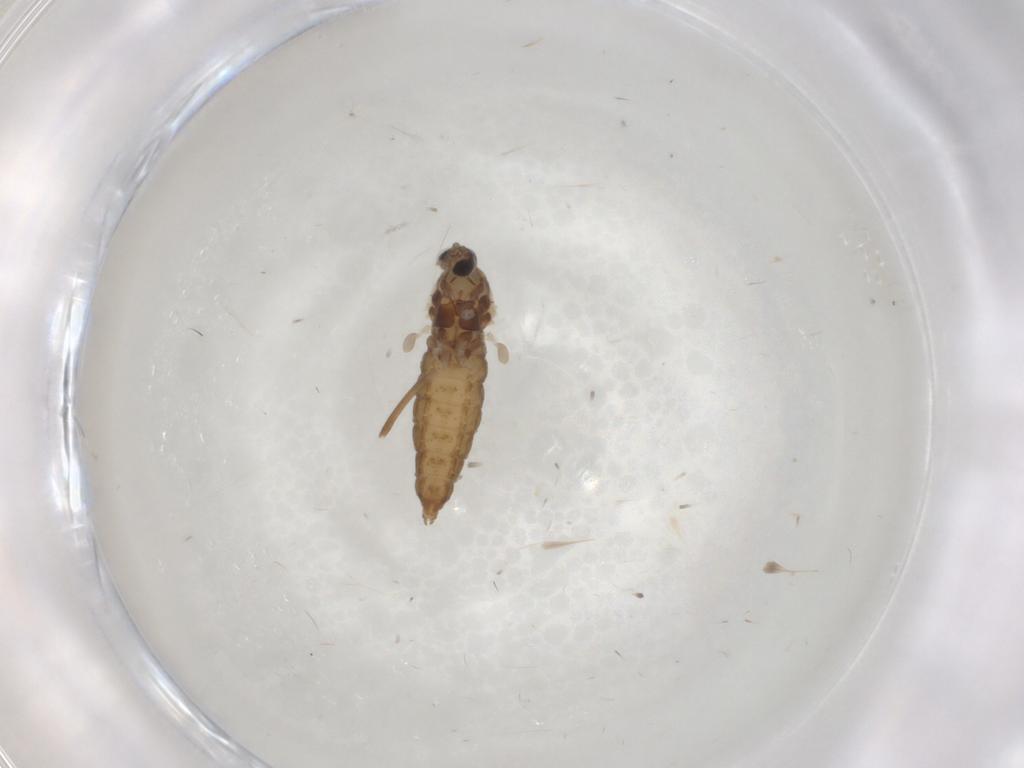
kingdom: Animalia
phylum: Arthropoda
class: Insecta
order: Diptera
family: Cecidomyiidae
